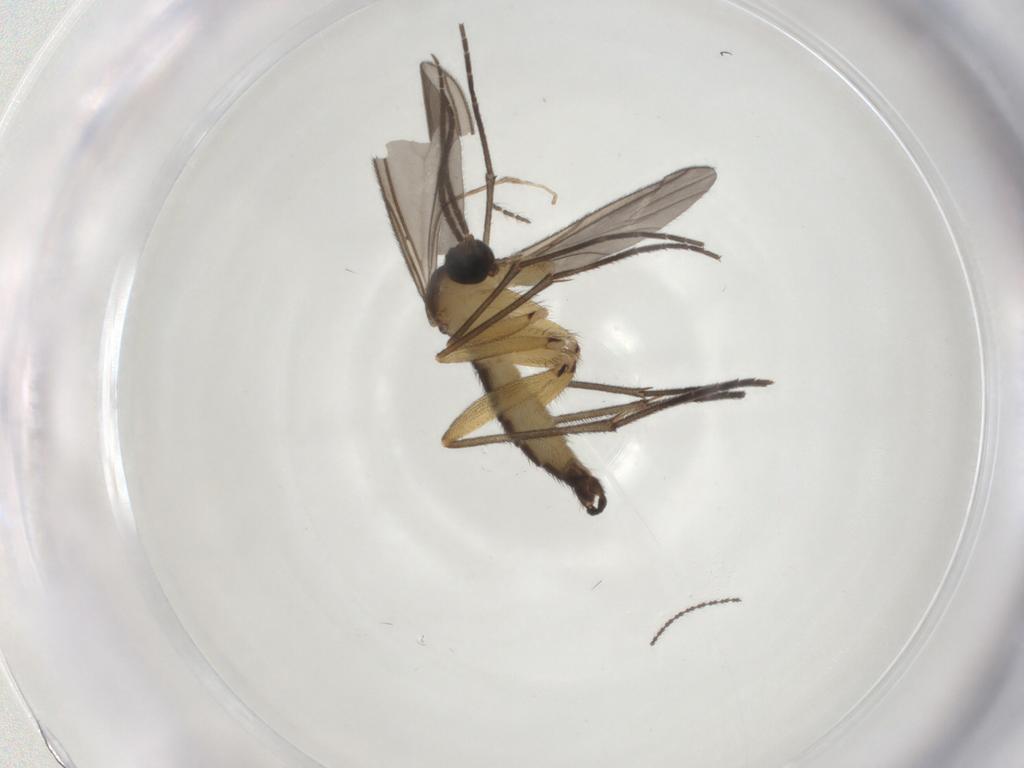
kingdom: Animalia
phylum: Arthropoda
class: Insecta
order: Diptera
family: Sciaridae
